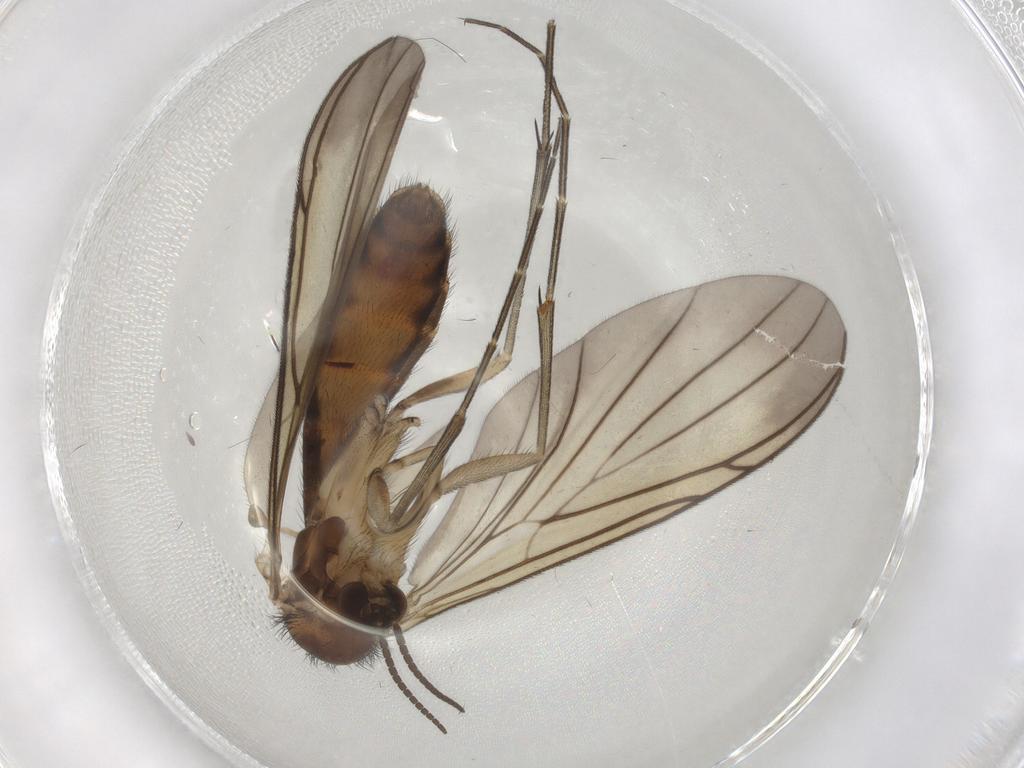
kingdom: Animalia
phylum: Arthropoda
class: Insecta
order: Diptera
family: Keroplatidae
